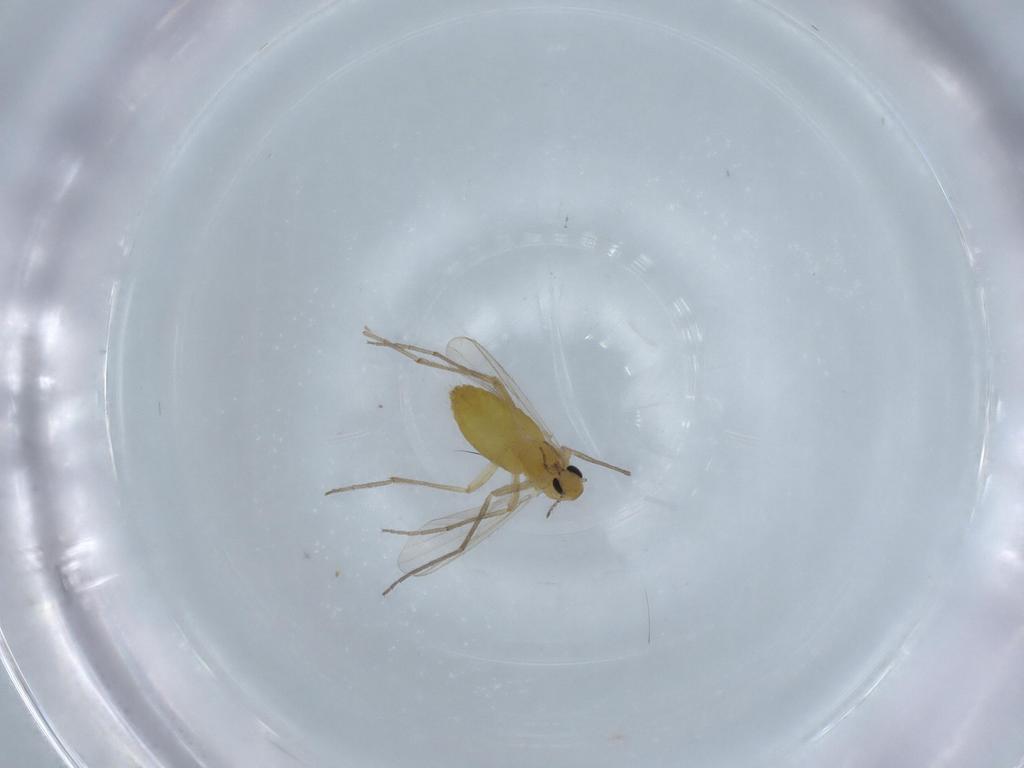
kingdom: Animalia
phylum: Arthropoda
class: Insecta
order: Diptera
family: Chironomidae
